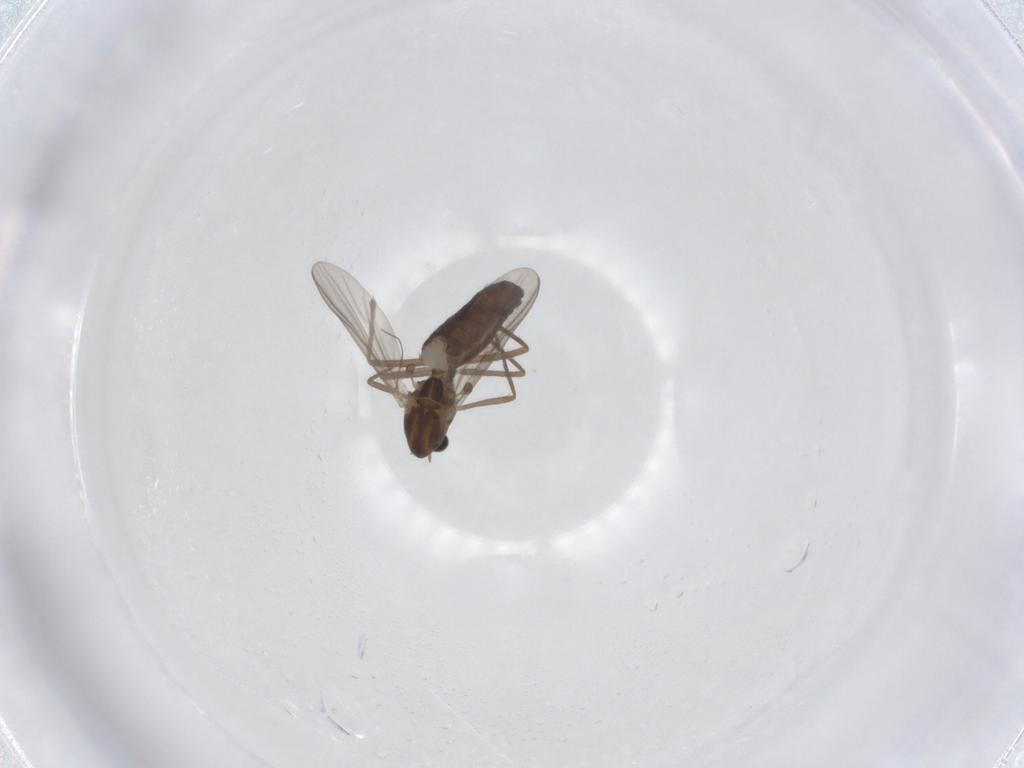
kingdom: Animalia
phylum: Arthropoda
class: Insecta
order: Diptera
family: Chironomidae
